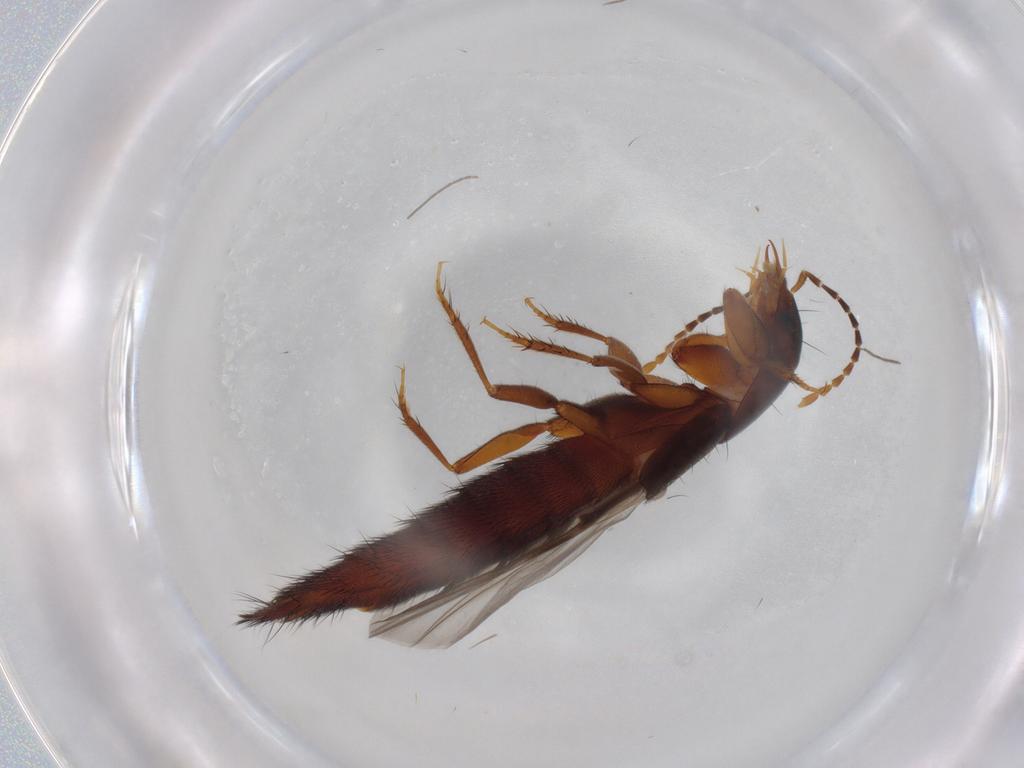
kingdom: Animalia
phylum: Arthropoda
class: Insecta
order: Coleoptera
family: Staphylinidae
